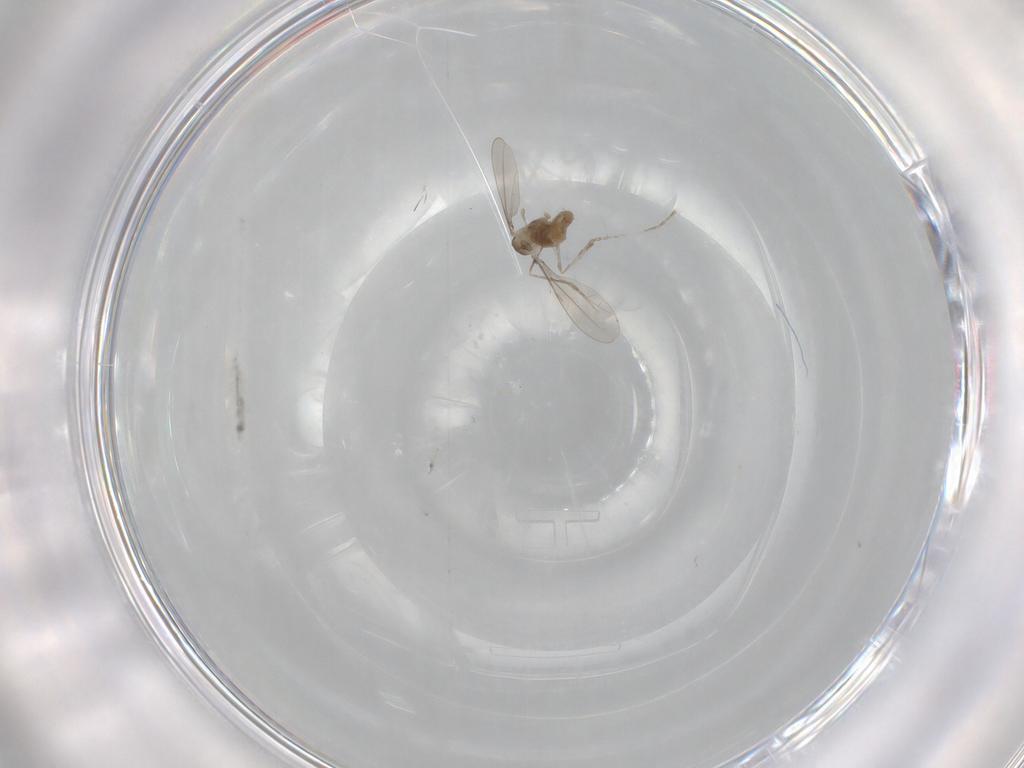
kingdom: Animalia
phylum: Arthropoda
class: Insecta
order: Diptera
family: Cecidomyiidae
